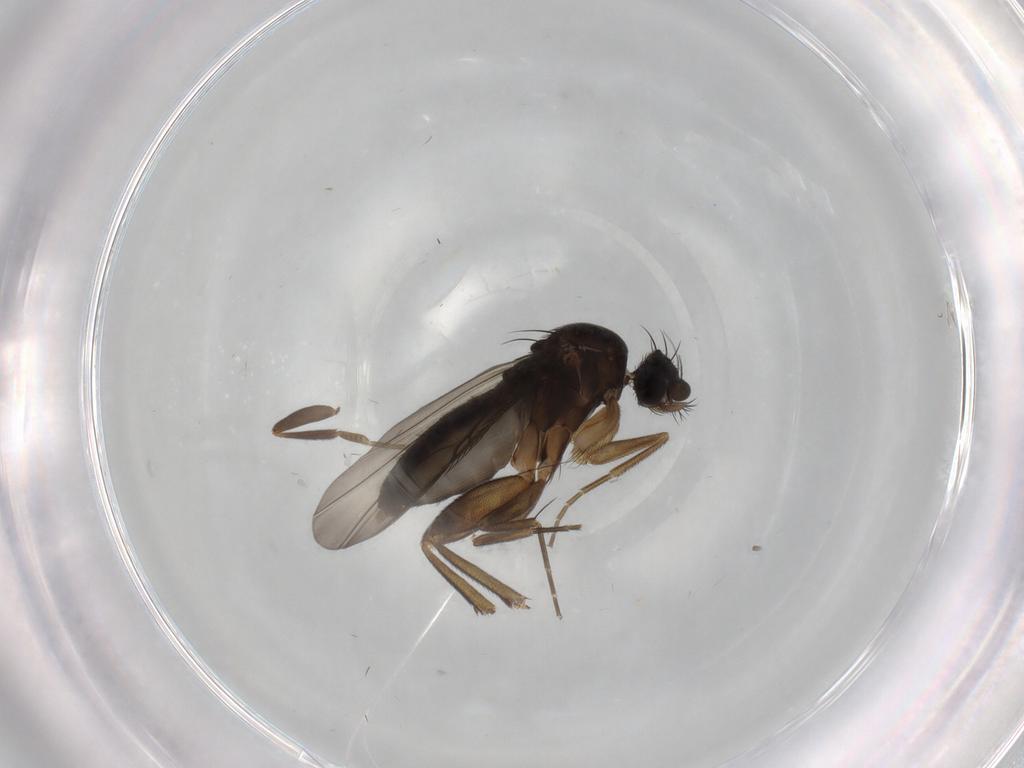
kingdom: Animalia
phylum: Arthropoda
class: Insecta
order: Diptera
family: Phoridae
